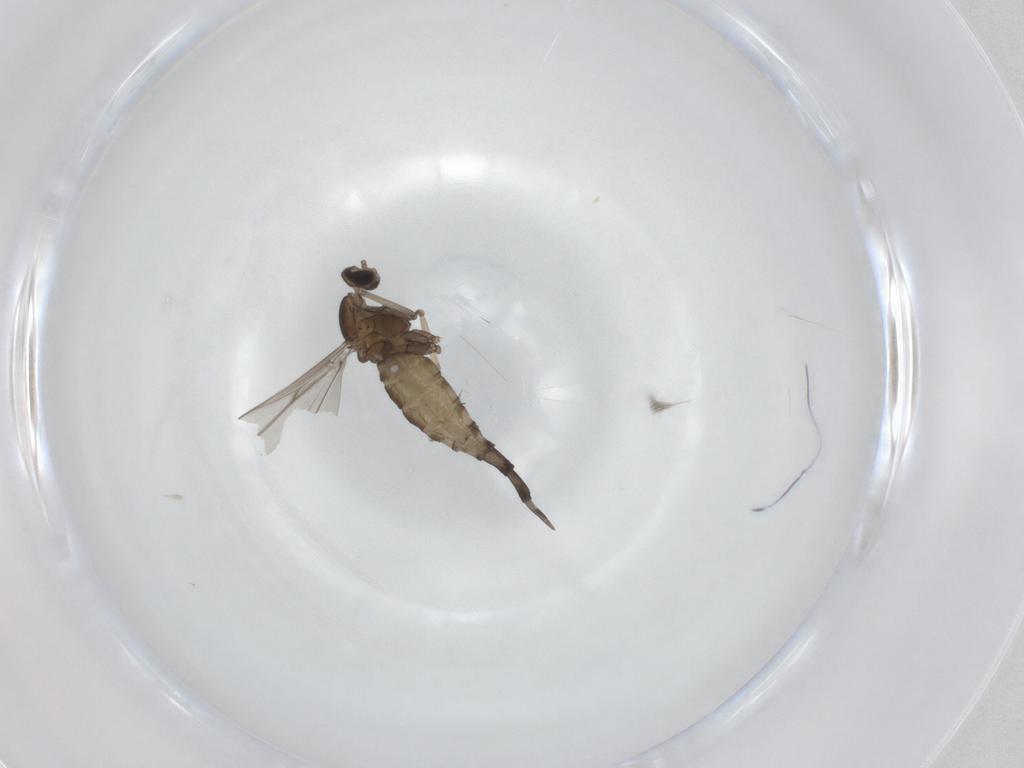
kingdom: Animalia
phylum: Arthropoda
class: Insecta
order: Diptera
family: Cecidomyiidae
